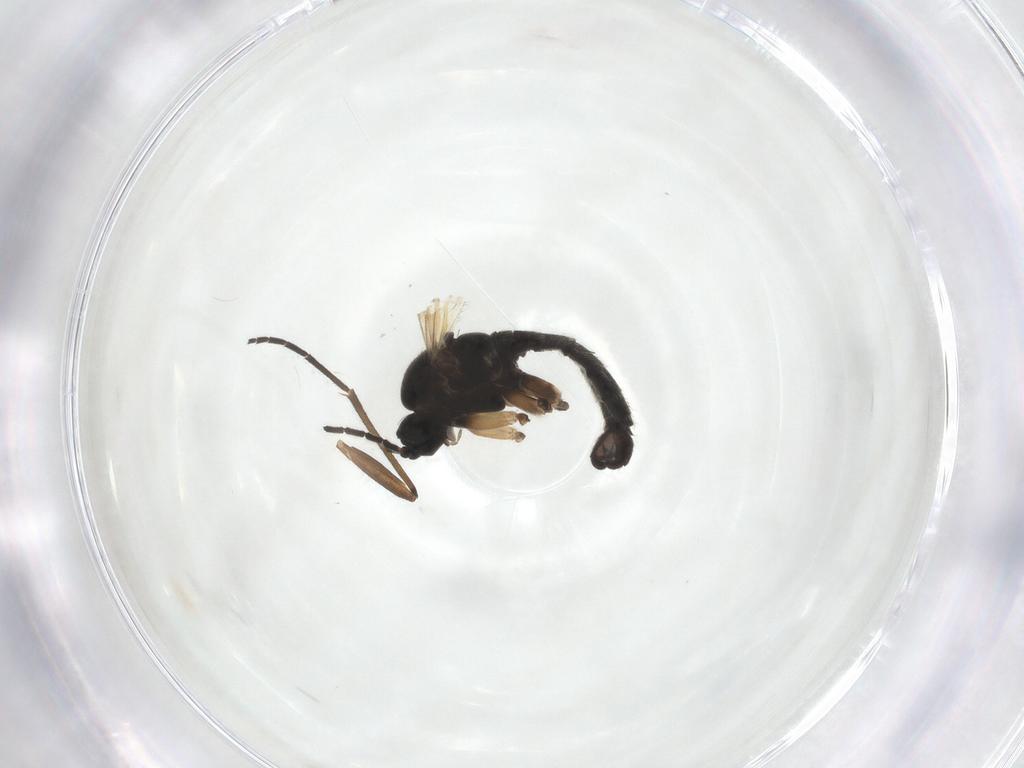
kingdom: Animalia
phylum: Arthropoda
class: Insecta
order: Diptera
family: Sciaridae
